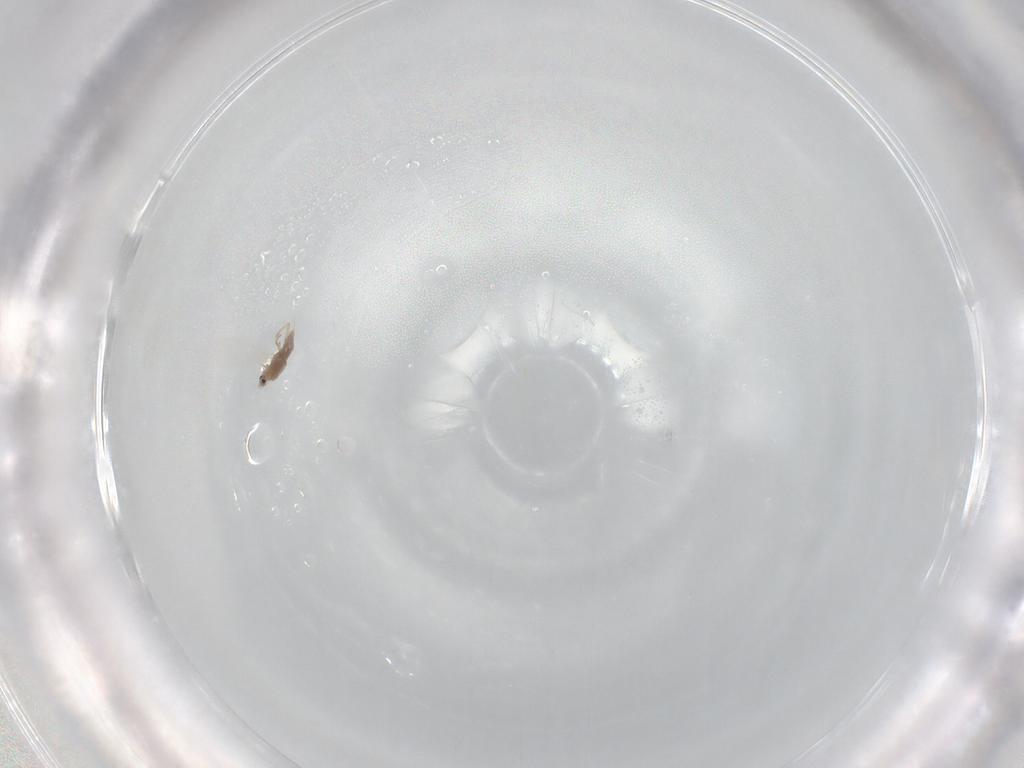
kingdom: Animalia
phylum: Arthropoda
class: Insecta
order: Hemiptera
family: Coccoidea_incertae_sedis
